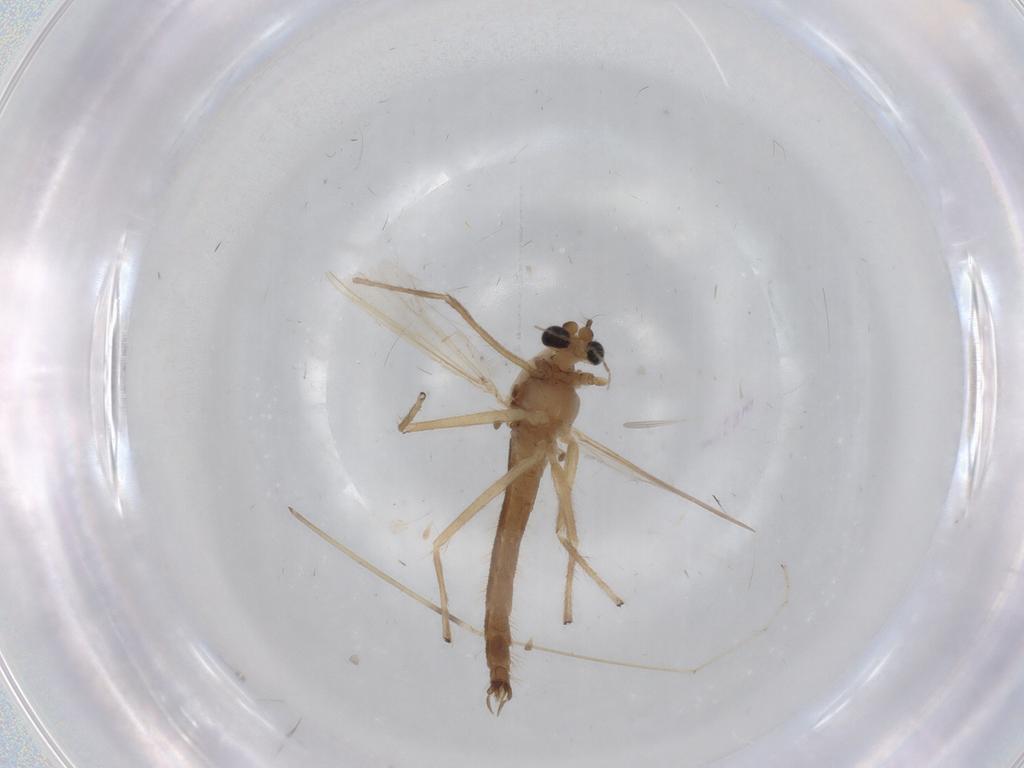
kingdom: Animalia
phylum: Arthropoda
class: Insecta
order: Diptera
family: Chironomidae
